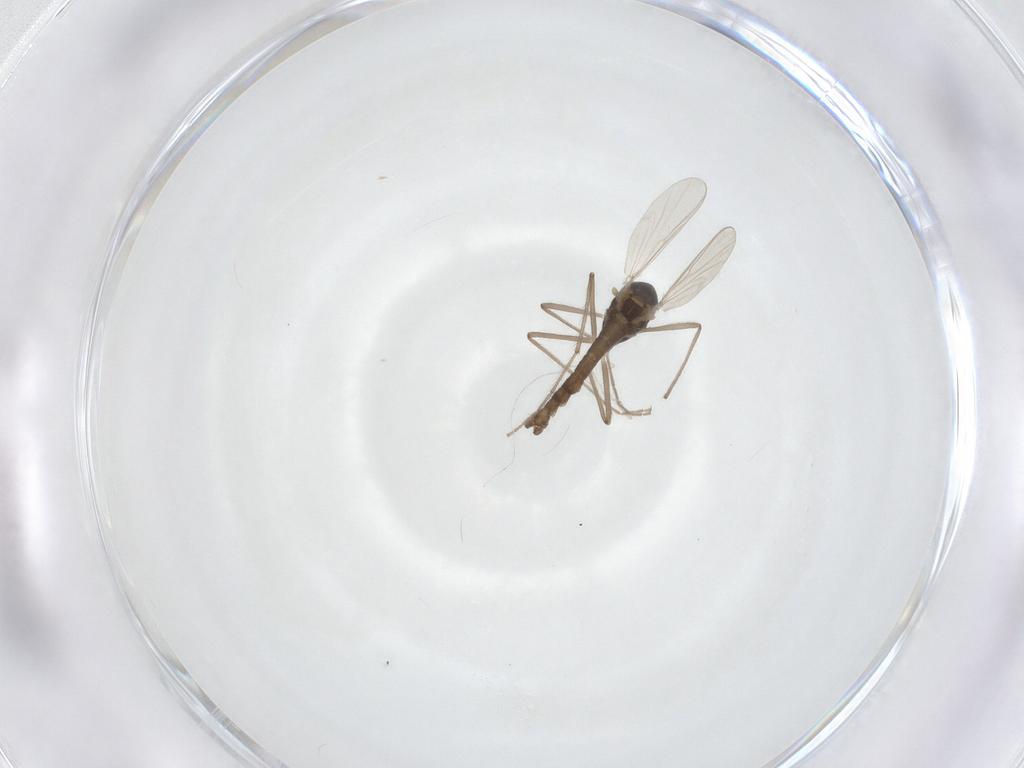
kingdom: Animalia
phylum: Arthropoda
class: Insecta
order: Diptera
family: Chironomidae
